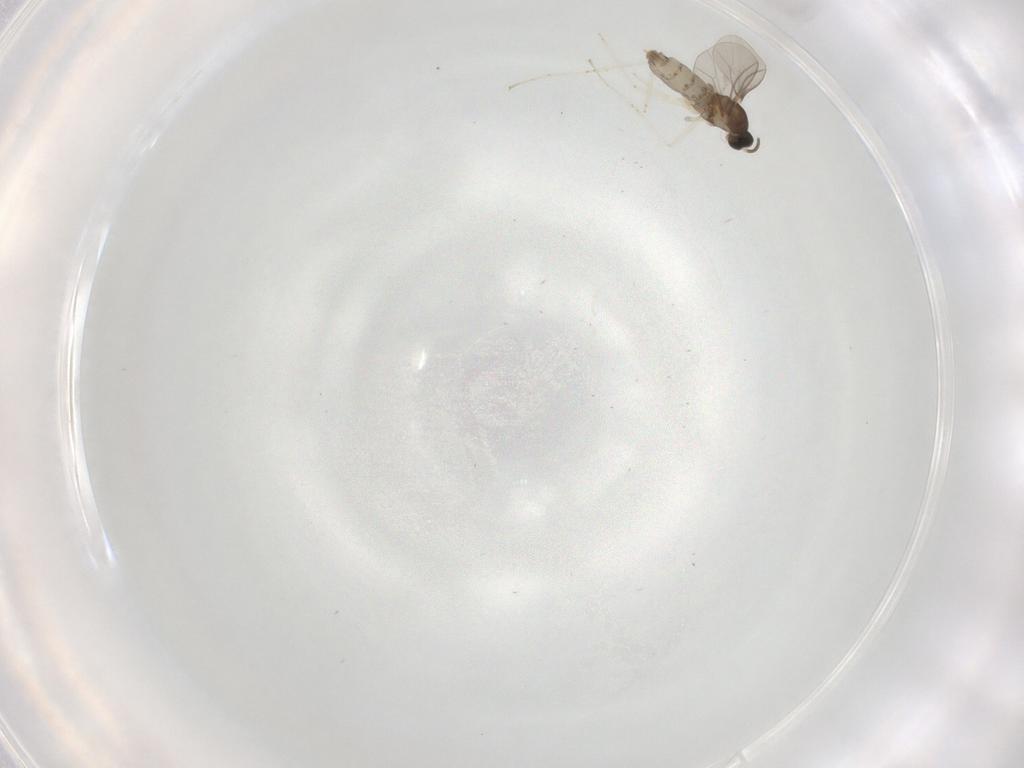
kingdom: Animalia
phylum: Arthropoda
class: Insecta
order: Diptera
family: Cecidomyiidae
